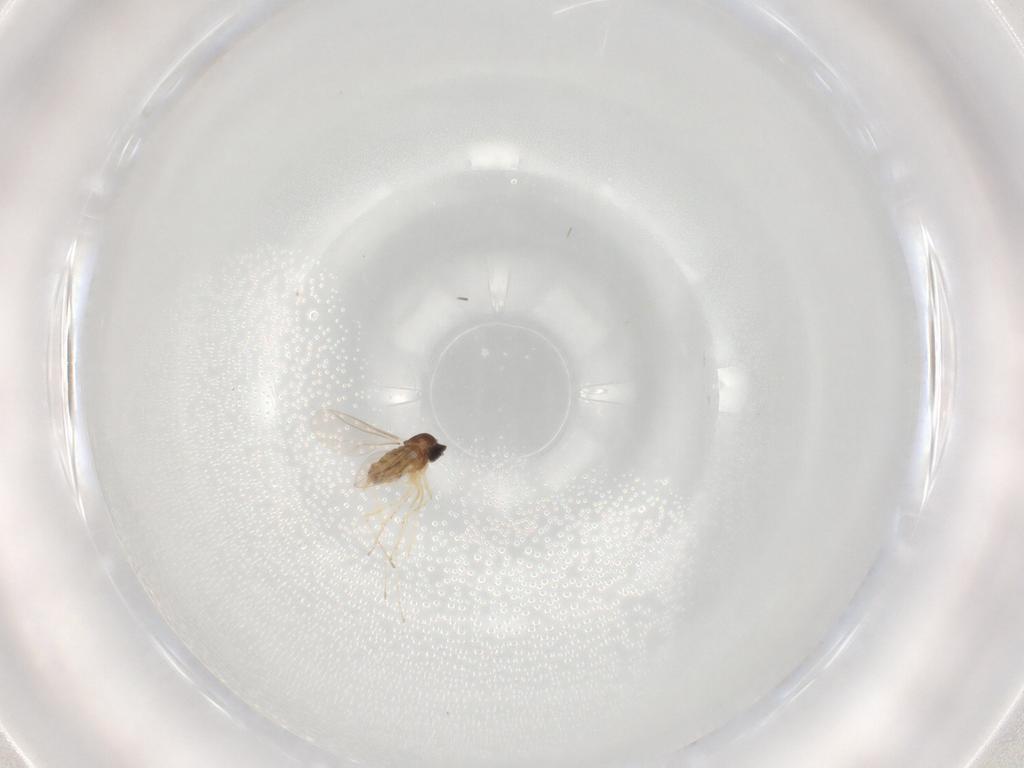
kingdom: Animalia
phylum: Arthropoda
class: Insecta
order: Diptera
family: Cecidomyiidae
